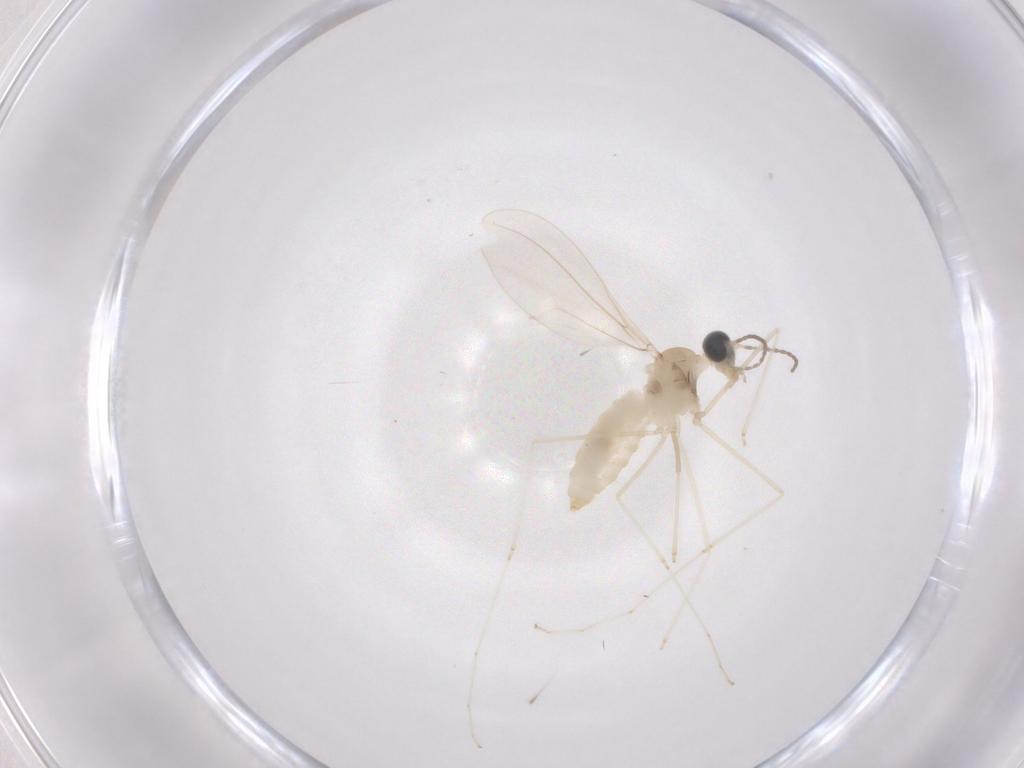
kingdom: Animalia
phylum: Arthropoda
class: Insecta
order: Diptera
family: Cecidomyiidae
